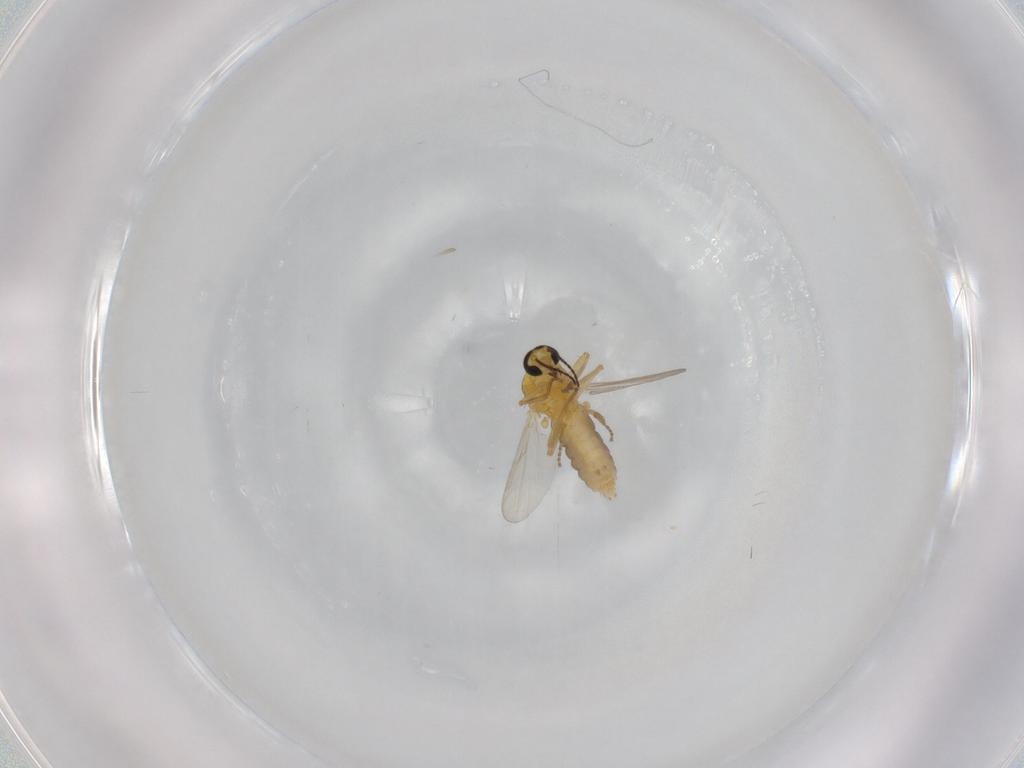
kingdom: Animalia
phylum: Arthropoda
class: Insecta
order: Diptera
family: Ceratopogonidae
